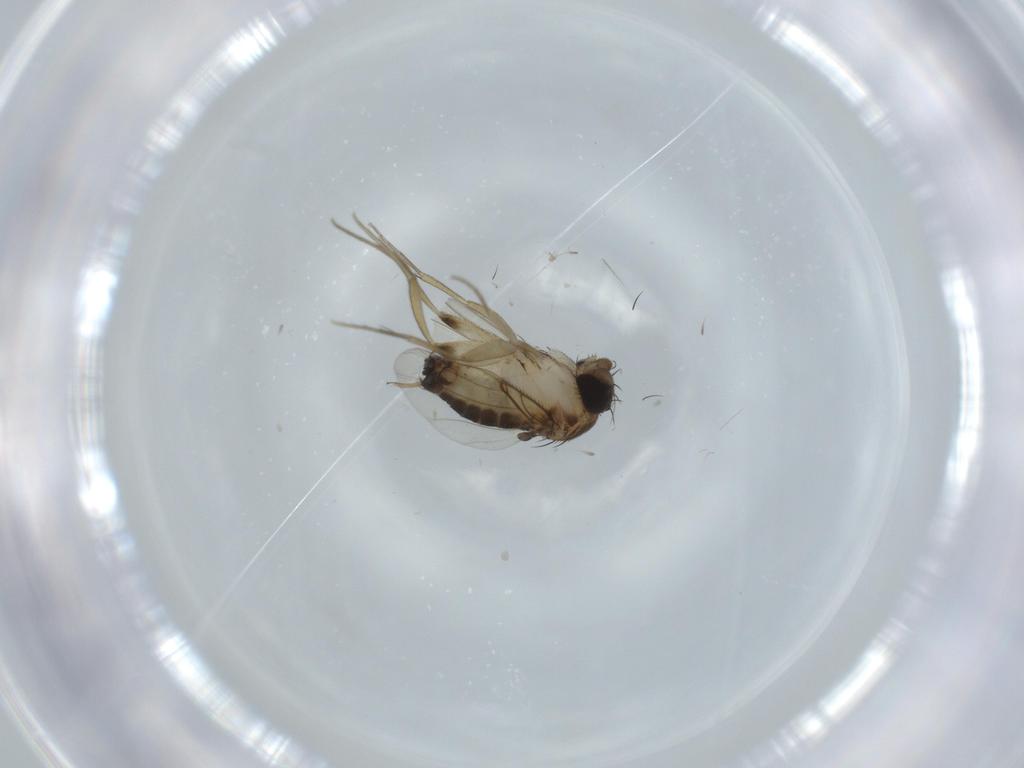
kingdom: Animalia
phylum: Arthropoda
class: Insecta
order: Diptera
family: Phoridae
